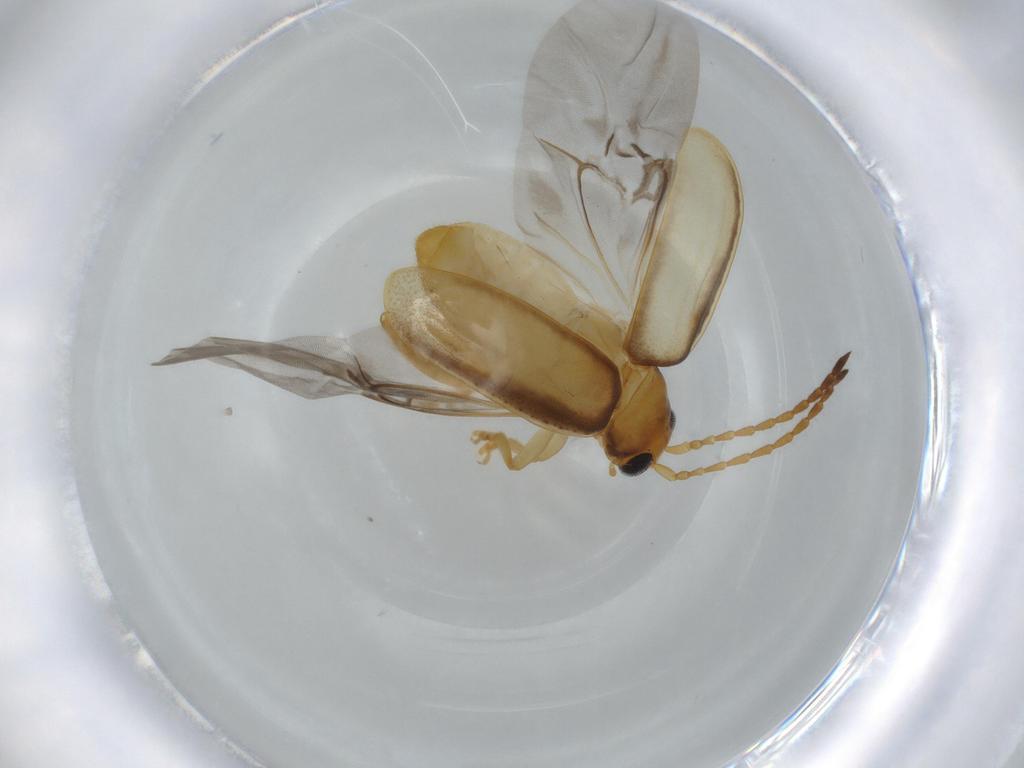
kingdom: Animalia
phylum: Arthropoda
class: Insecta
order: Coleoptera
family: Chrysomelidae
